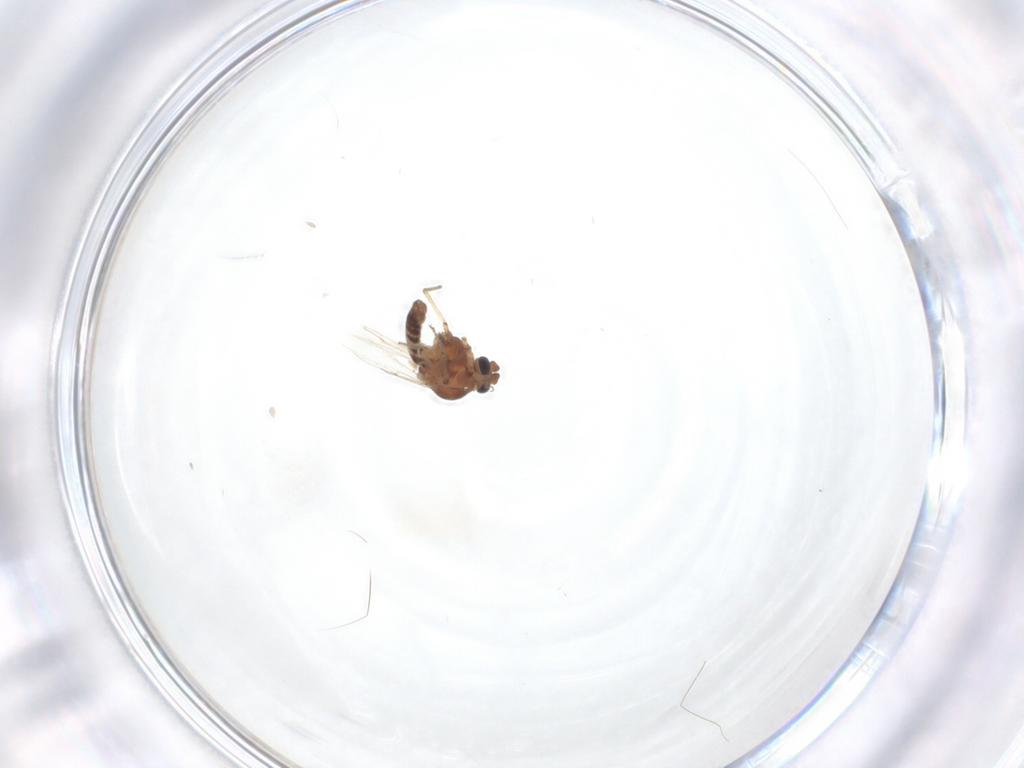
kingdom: Animalia
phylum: Arthropoda
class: Insecta
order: Diptera
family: Ceratopogonidae
